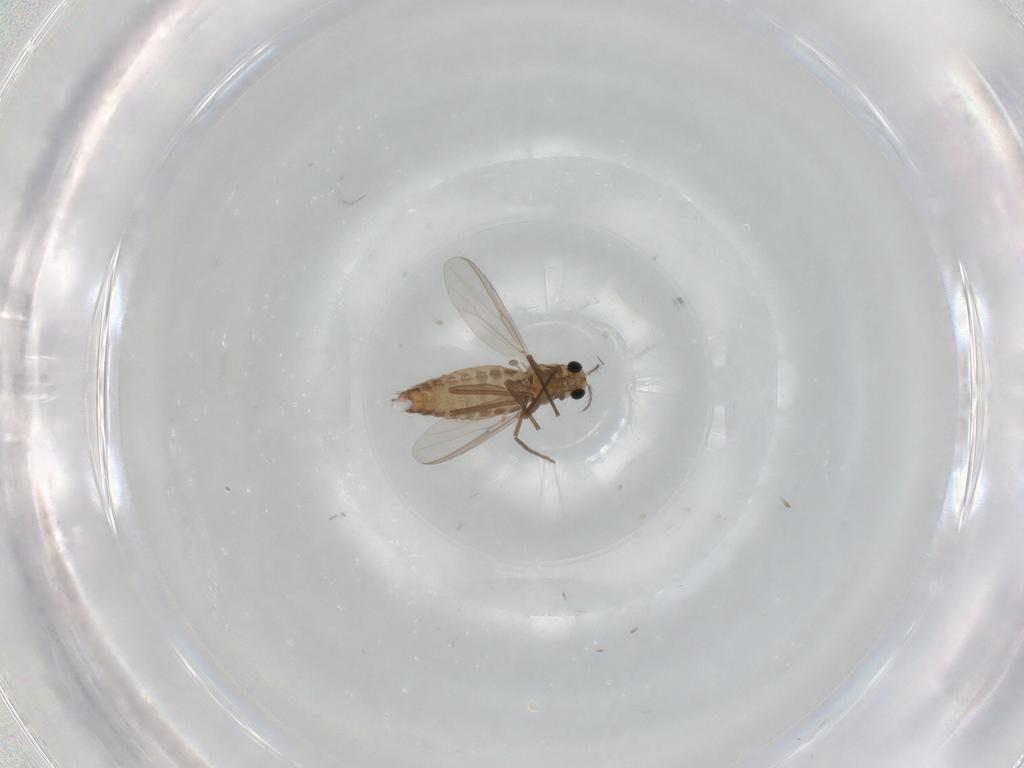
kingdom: Animalia
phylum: Arthropoda
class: Insecta
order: Diptera
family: Chironomidae
